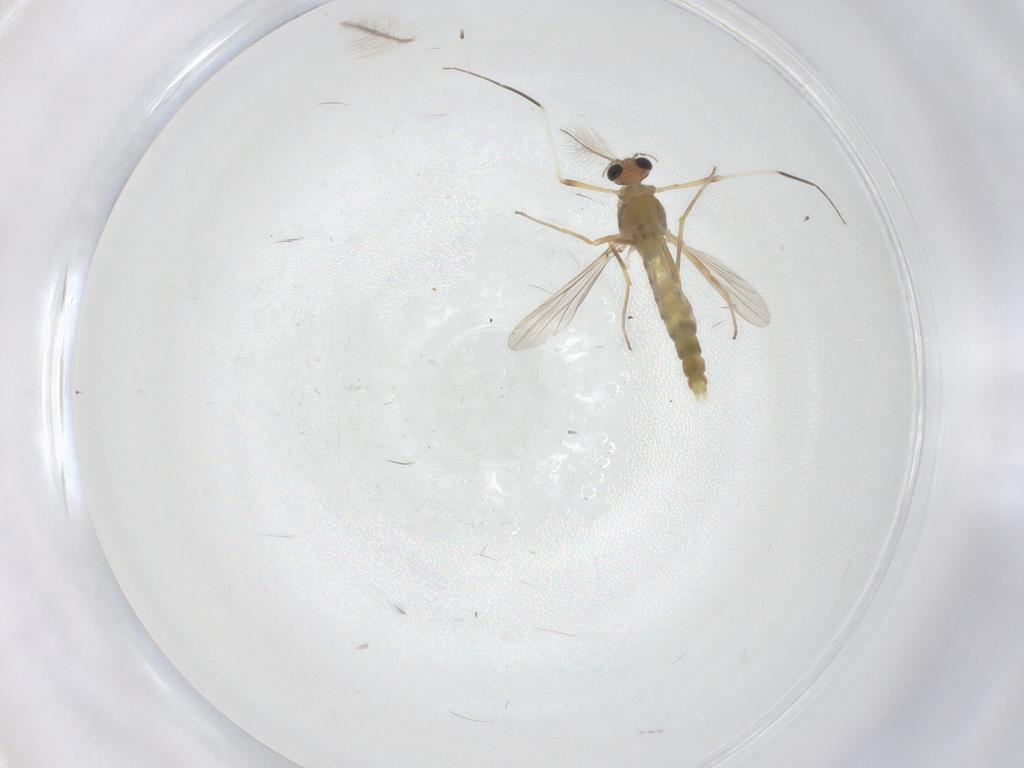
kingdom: Animalia
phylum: Arthropoda
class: Insecta
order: Diptera
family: Chironomidae
